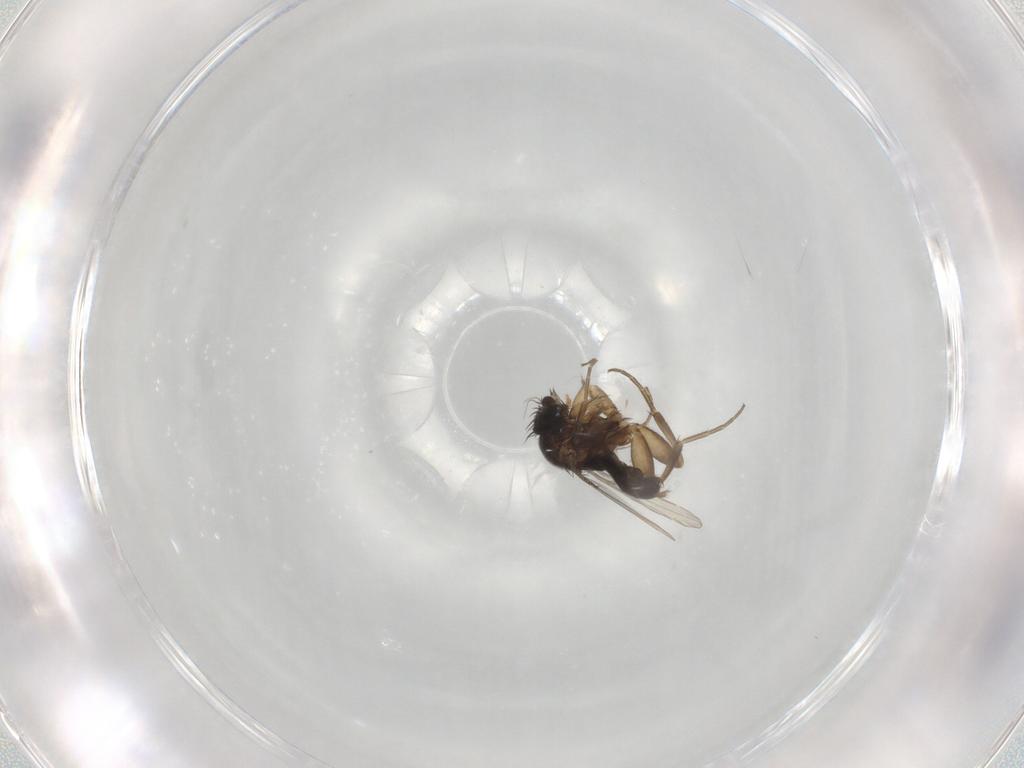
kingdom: Animalia
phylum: Arthropoda
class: Insecta
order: Diptera
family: Phoridae
